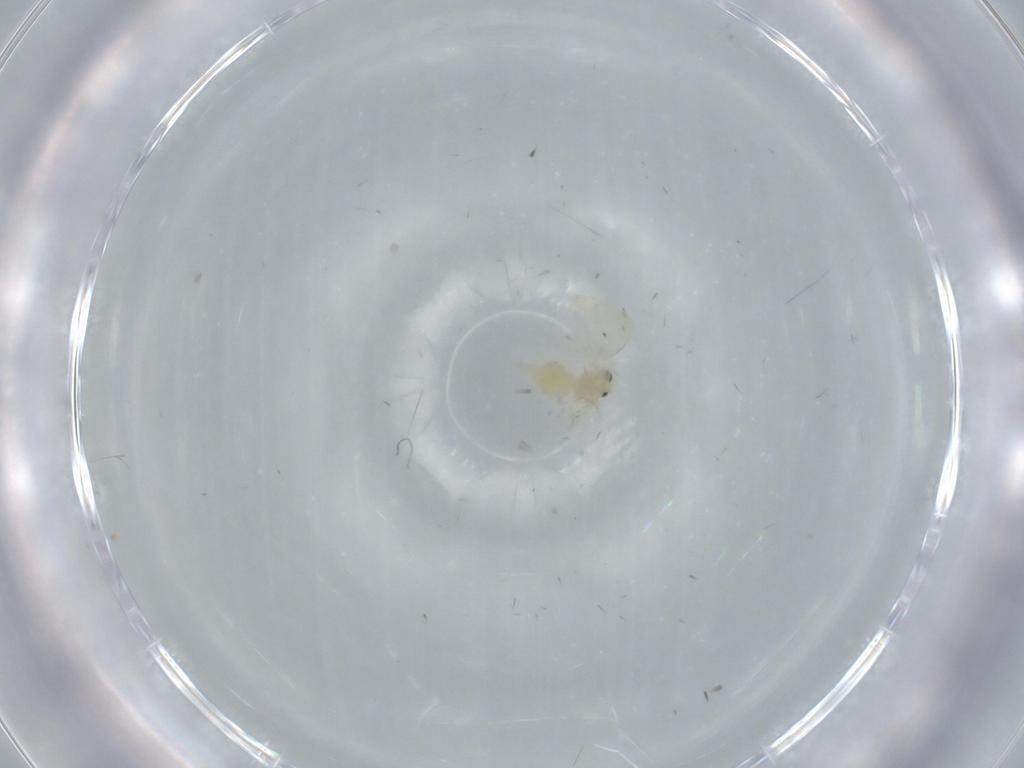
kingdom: Animalia
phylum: Arthropoda
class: Insecta
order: Hemiptera
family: Aleyrodidae
